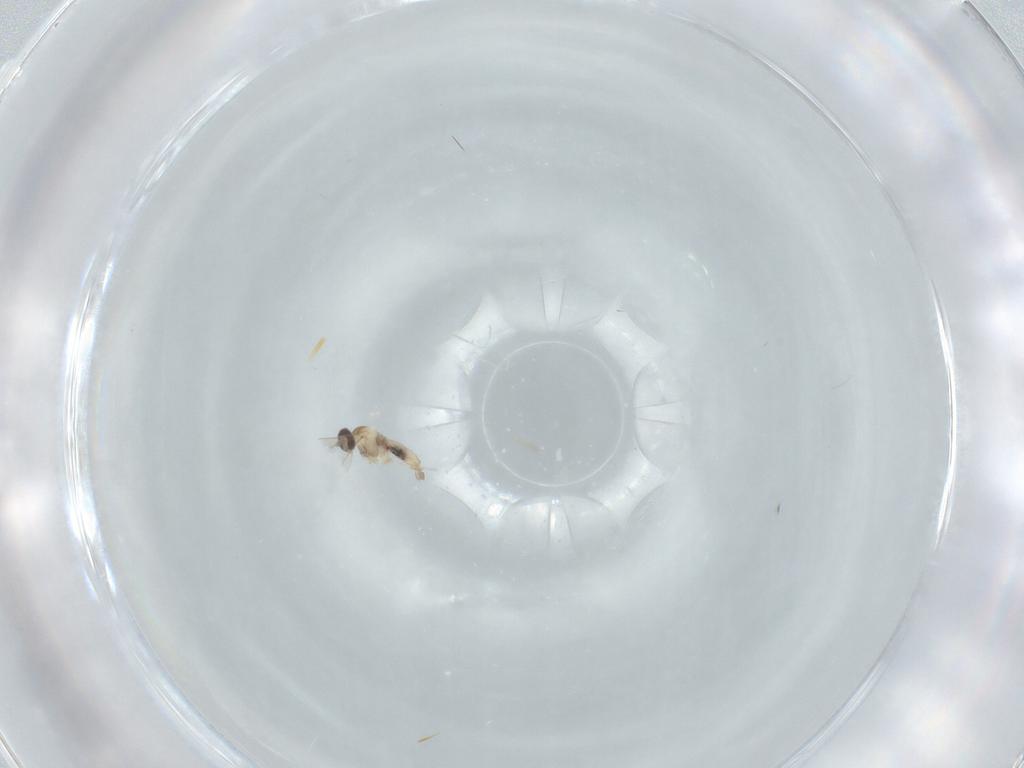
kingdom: Animalia
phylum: Arthropoda
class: Insecta
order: Diptera
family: Cecidomyiidae
